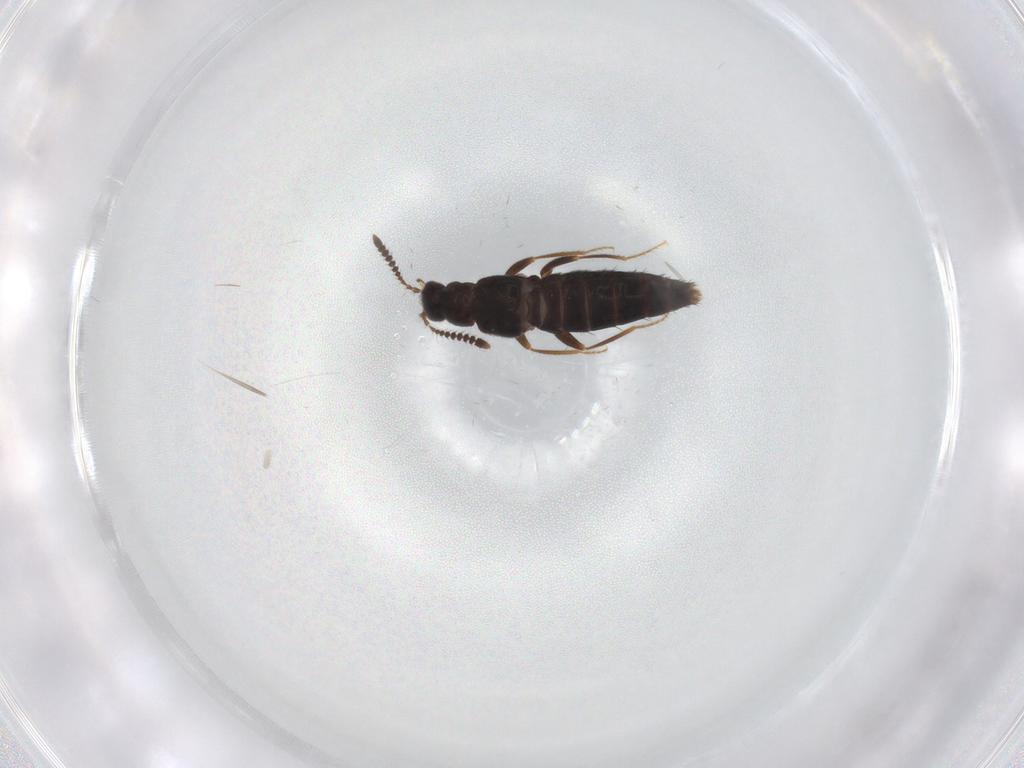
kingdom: Animalia
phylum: Arthropoda
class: Insecta
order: Coleoptera
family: Staphylinidae
